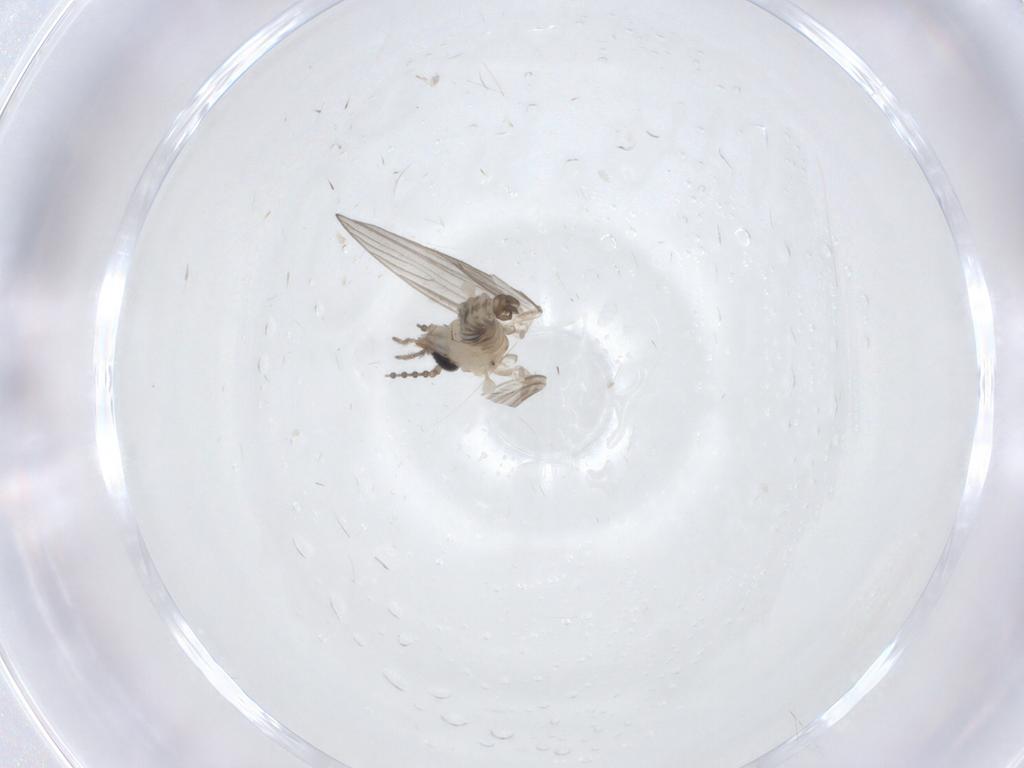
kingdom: Animalia
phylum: Arthropoda
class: Insecta
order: Diptera
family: Psychodidae
